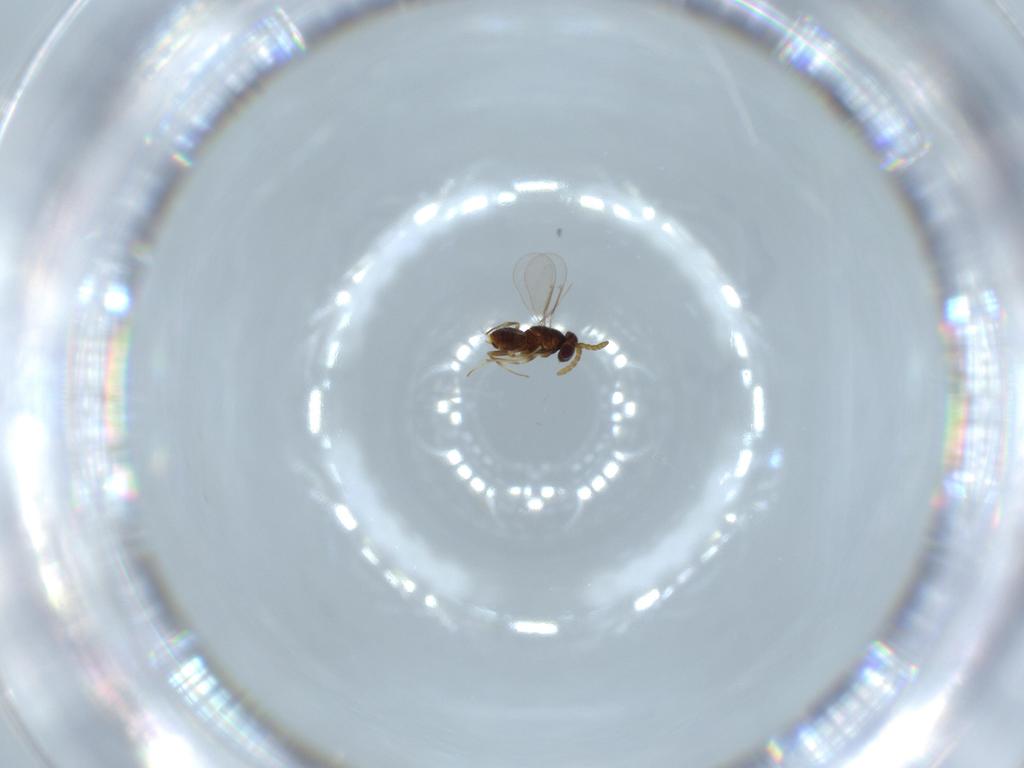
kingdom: Animalia
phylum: Arthropoda
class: Insecta
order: Hymenoptera
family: Aphelinidae
